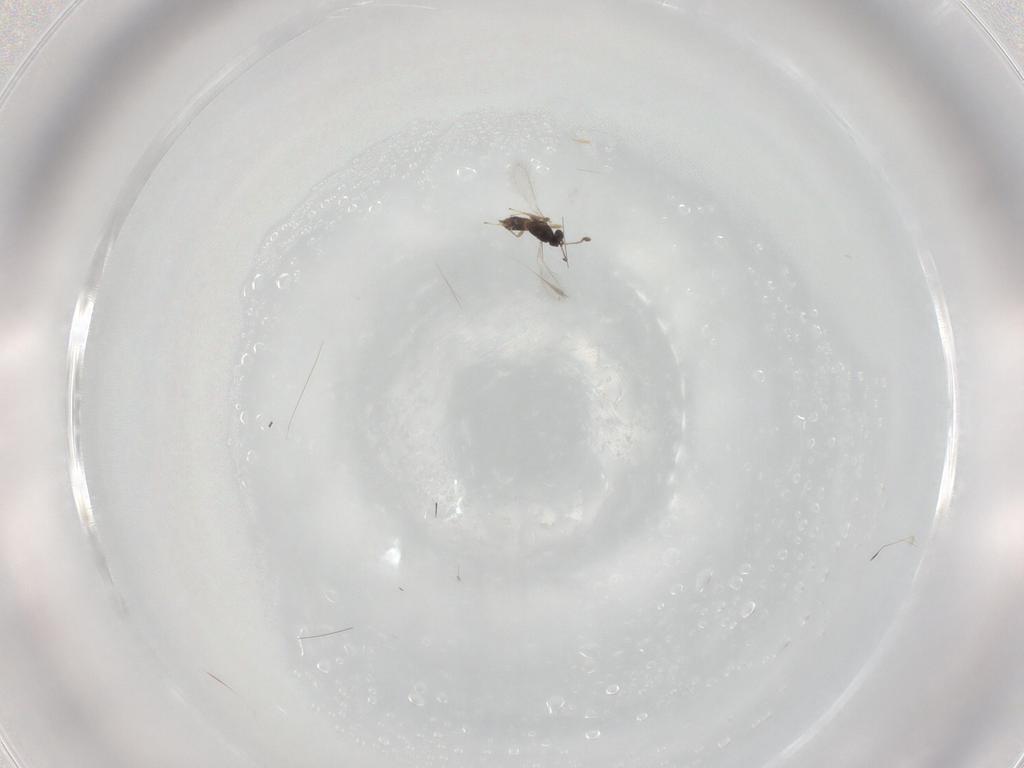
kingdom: Animalia
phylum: Arthropoda
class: Insecta
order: Hymenoptera
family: Mymaridae
